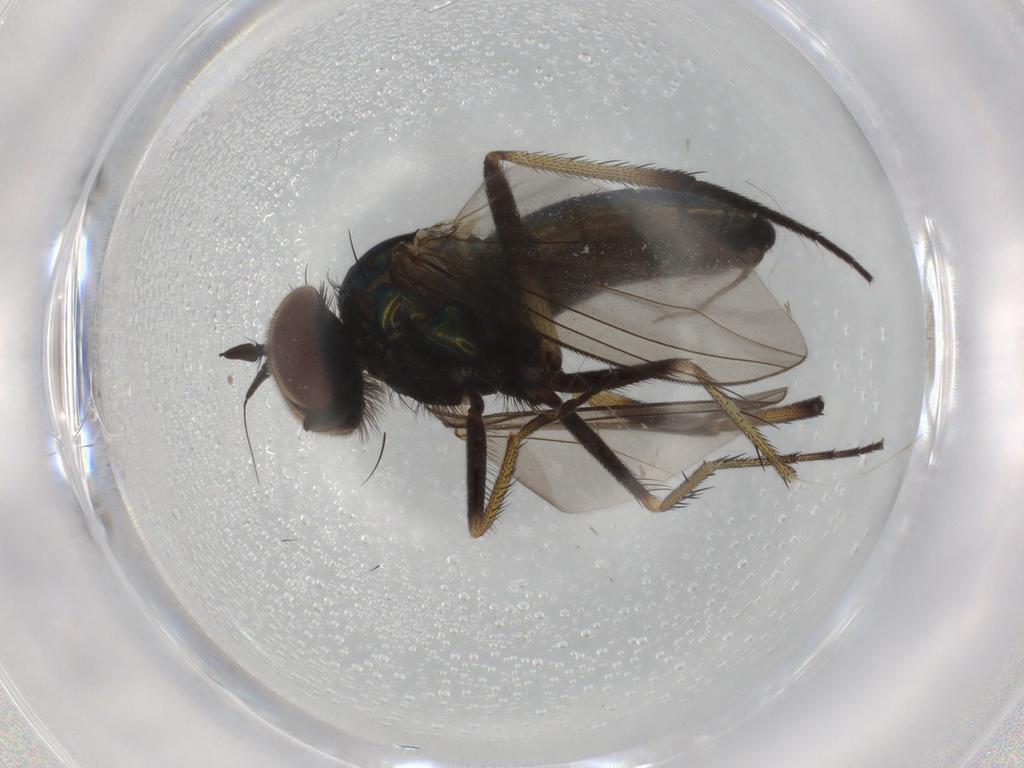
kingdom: Animalia
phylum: Arthropoda
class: Insecta
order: Diptera
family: Dolichopodidae
